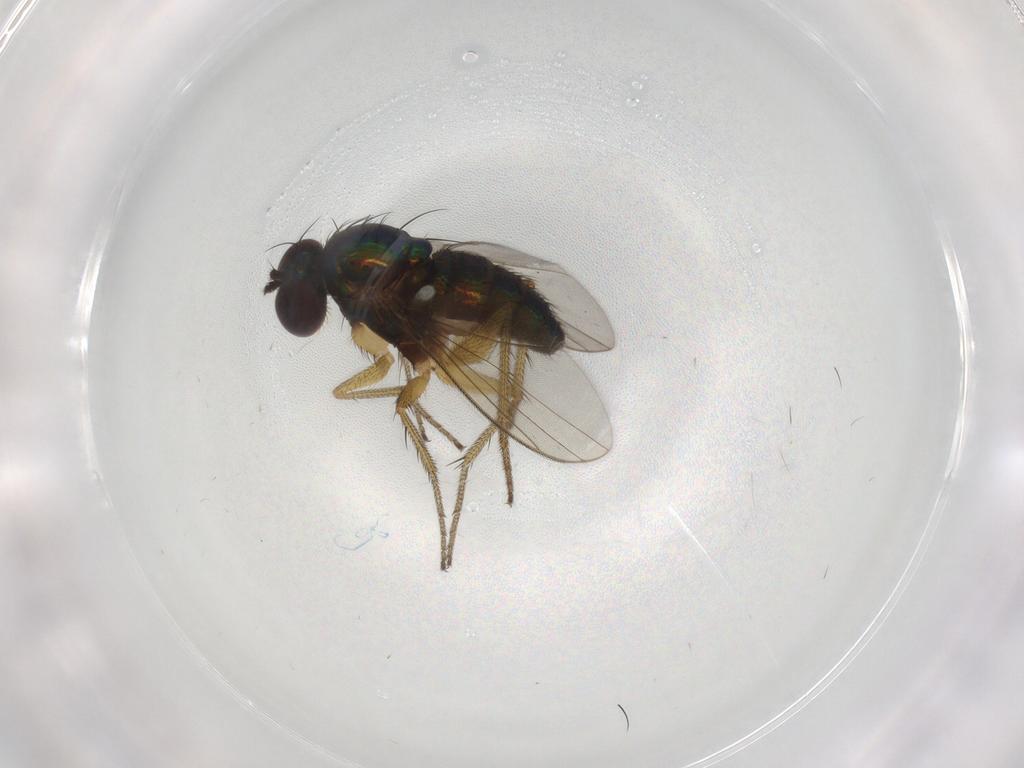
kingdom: Animalia
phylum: Arthropoda
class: Insecta
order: Diptera
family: Dolichopodidae
